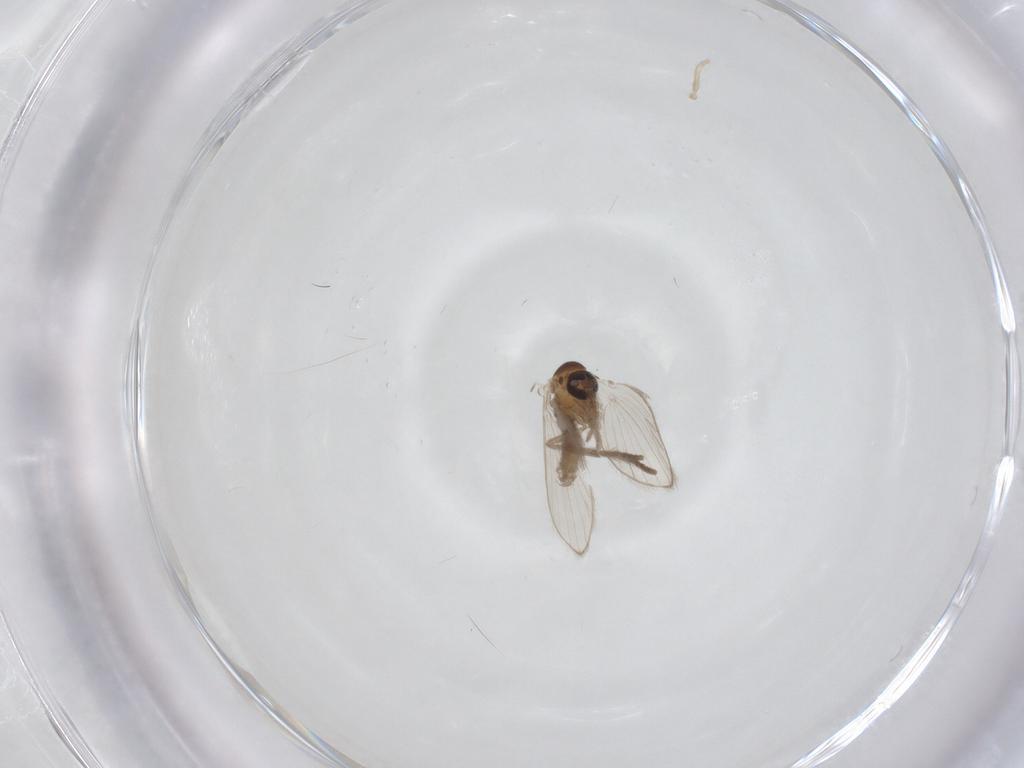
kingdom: Animalia
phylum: Arthropoda
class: Insecta
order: Diptera
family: Psychodidae
